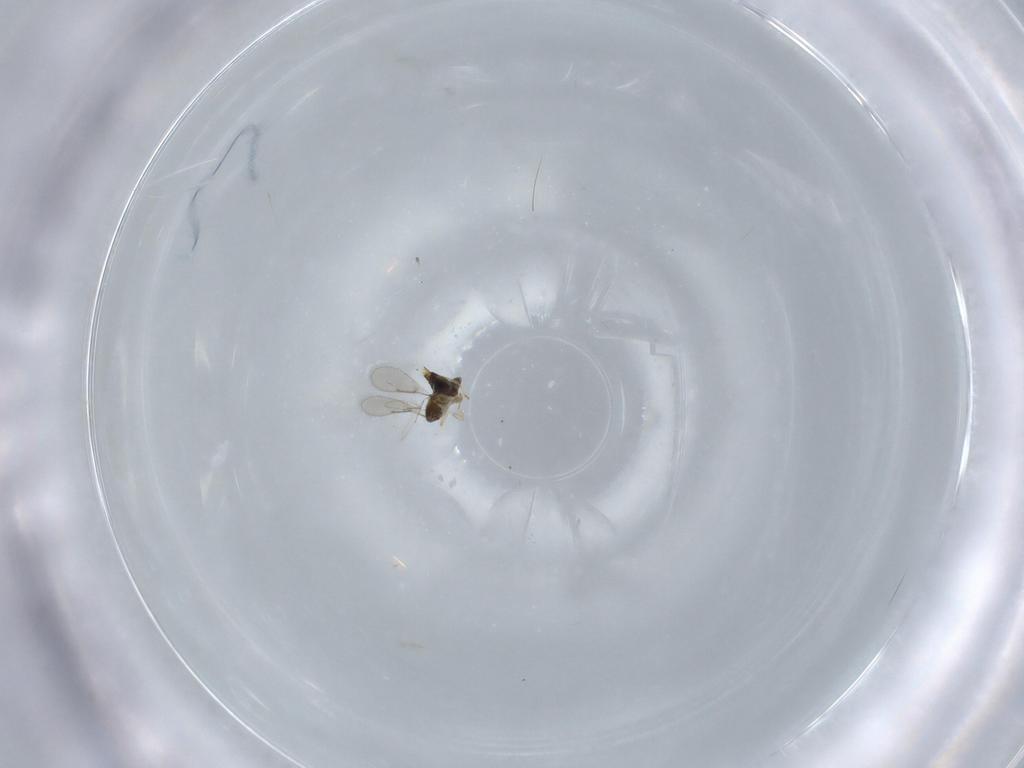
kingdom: Animalia
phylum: Arthropoda
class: Insecta
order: Hymenoptera
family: Aphelinidae
